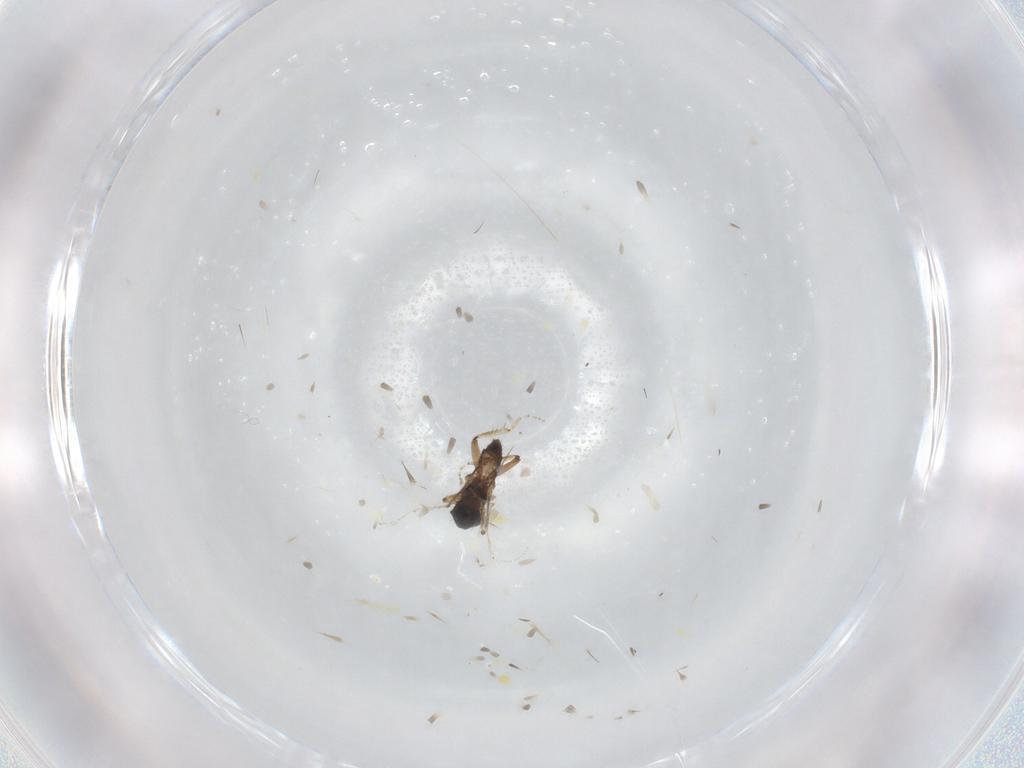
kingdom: Animalia
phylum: Arthropoda
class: Insecta
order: Diptera
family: Ceratopogonidae
